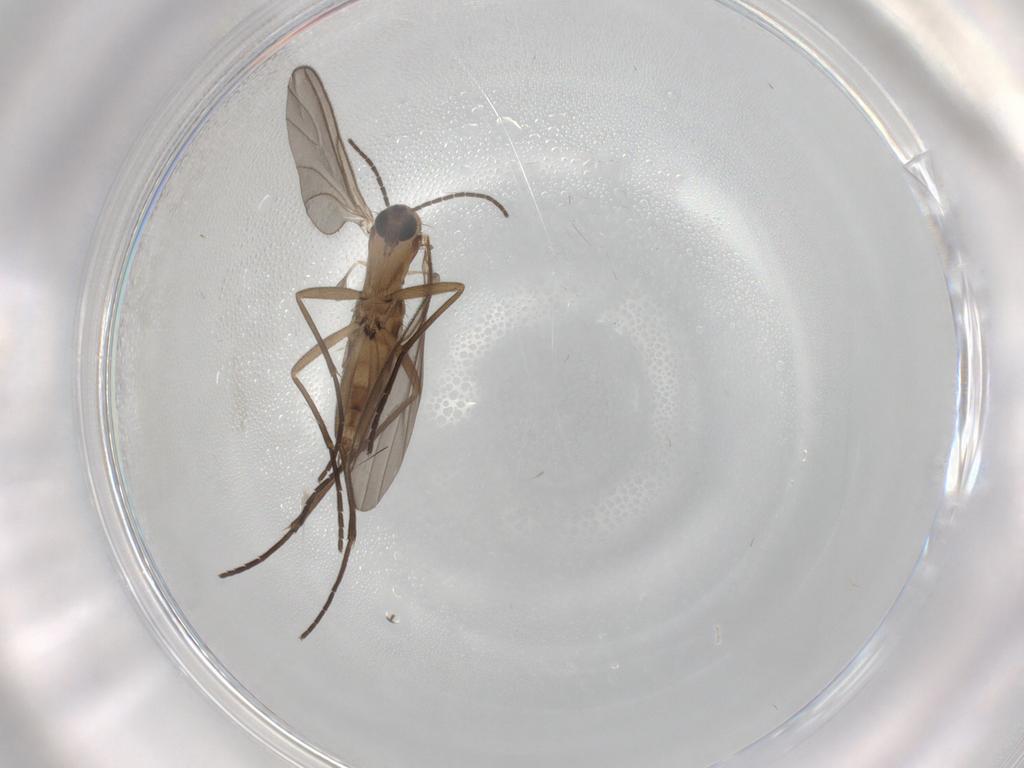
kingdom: Animalia
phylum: Arthropoda
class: Insecta
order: Diptera
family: Sciaridae
